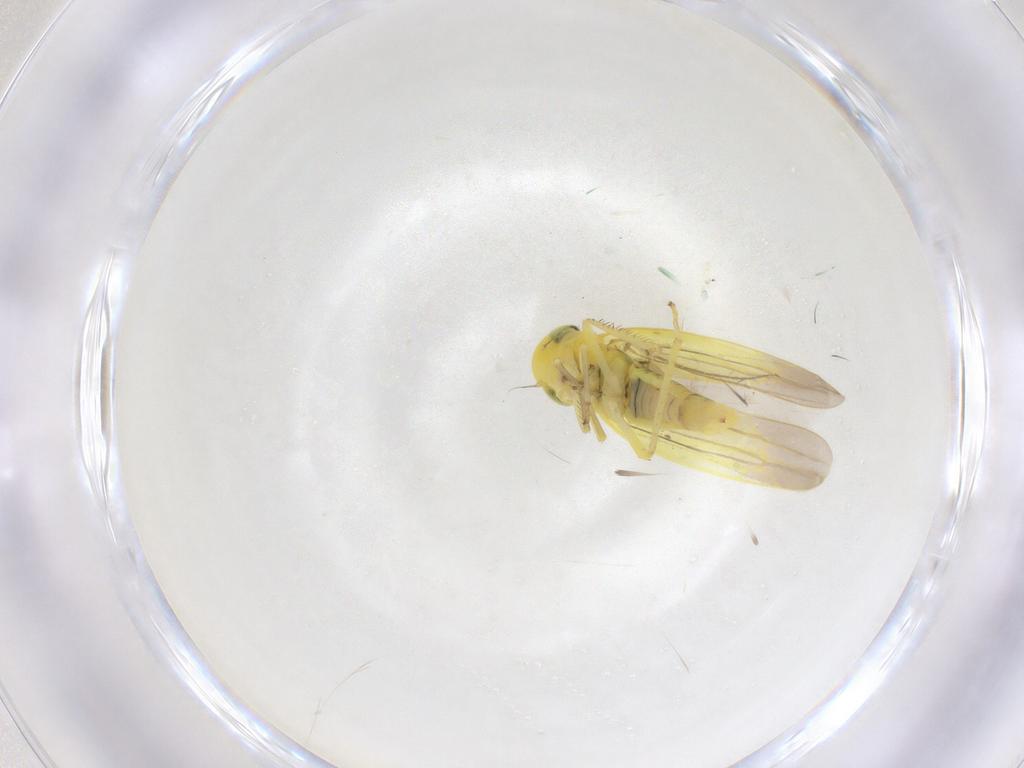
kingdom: Animalia
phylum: Arthropoda
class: Insecta
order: Hemiptera
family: Cicadellidae
